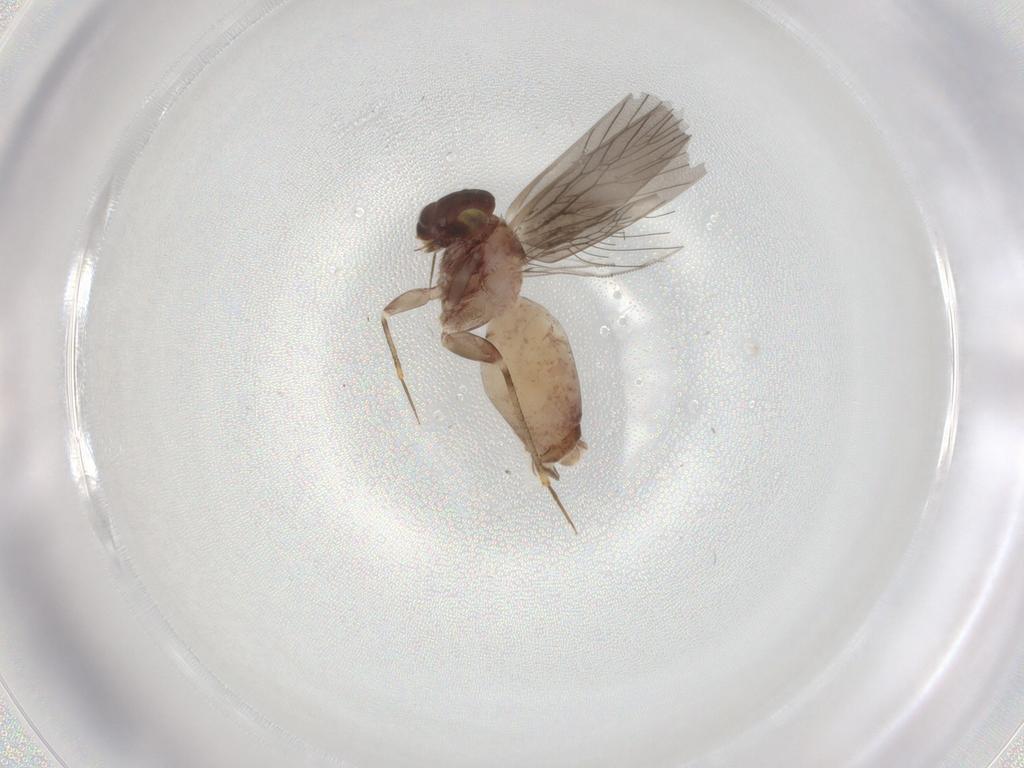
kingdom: Animalia
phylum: Arthropoda
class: Insecta
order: Psocodea
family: Lepidopsocidae
